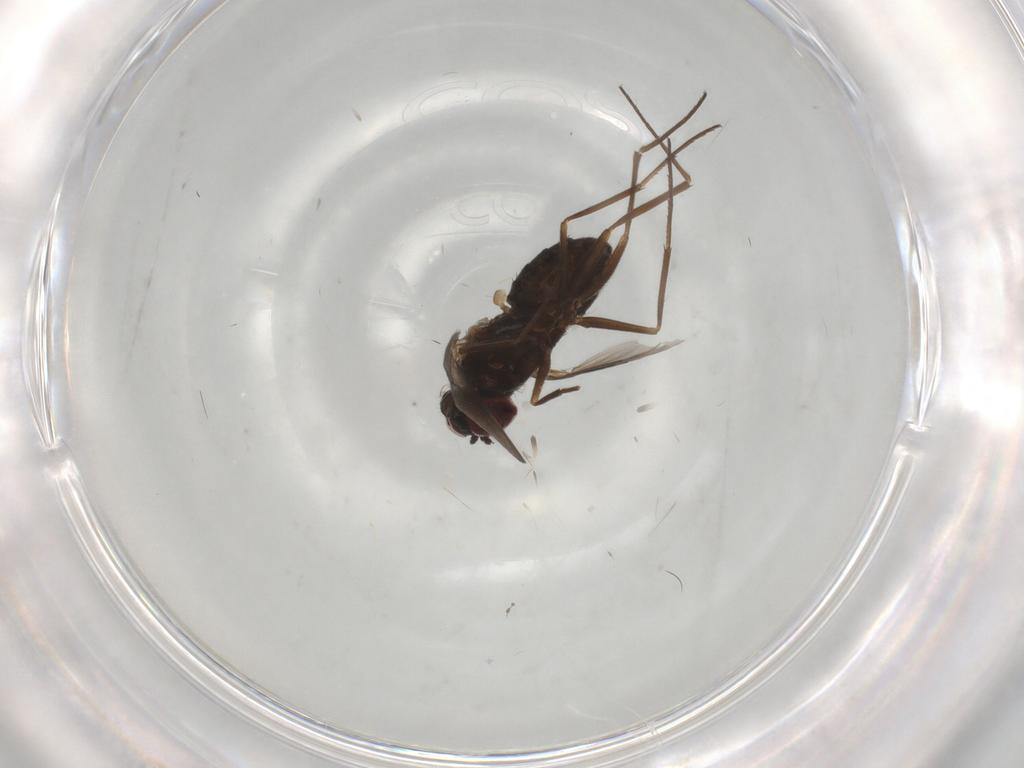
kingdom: Animalia
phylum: Arthropoda
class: Insecta
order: Diptera
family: Dolichopodidae
